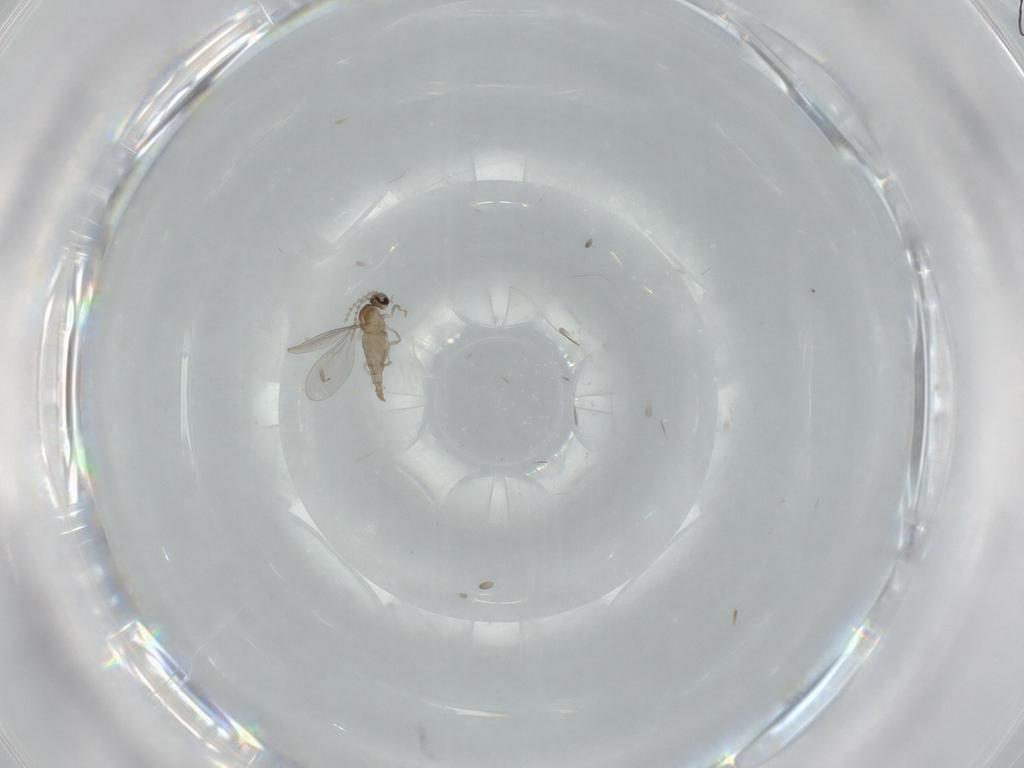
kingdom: Animalia
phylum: Arthropoda
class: Insecta
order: Diptera
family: Cecidomyiidae
